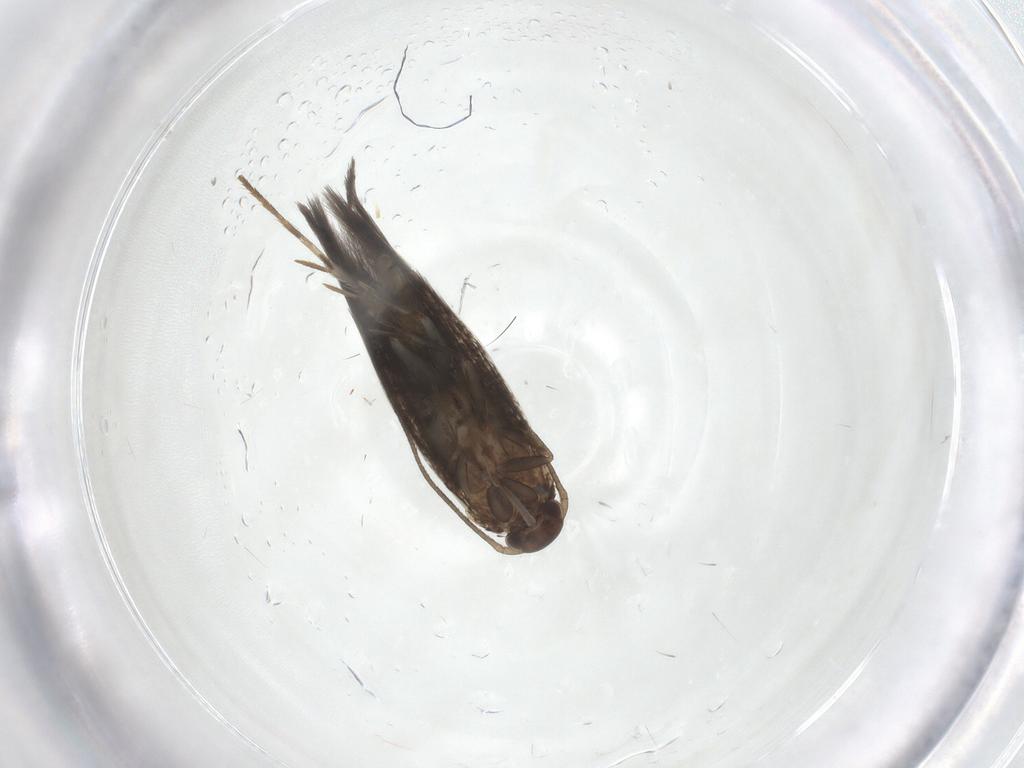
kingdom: Animalia
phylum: Arthropoda
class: Insecta
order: Lepidoptera
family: Elachistidae
